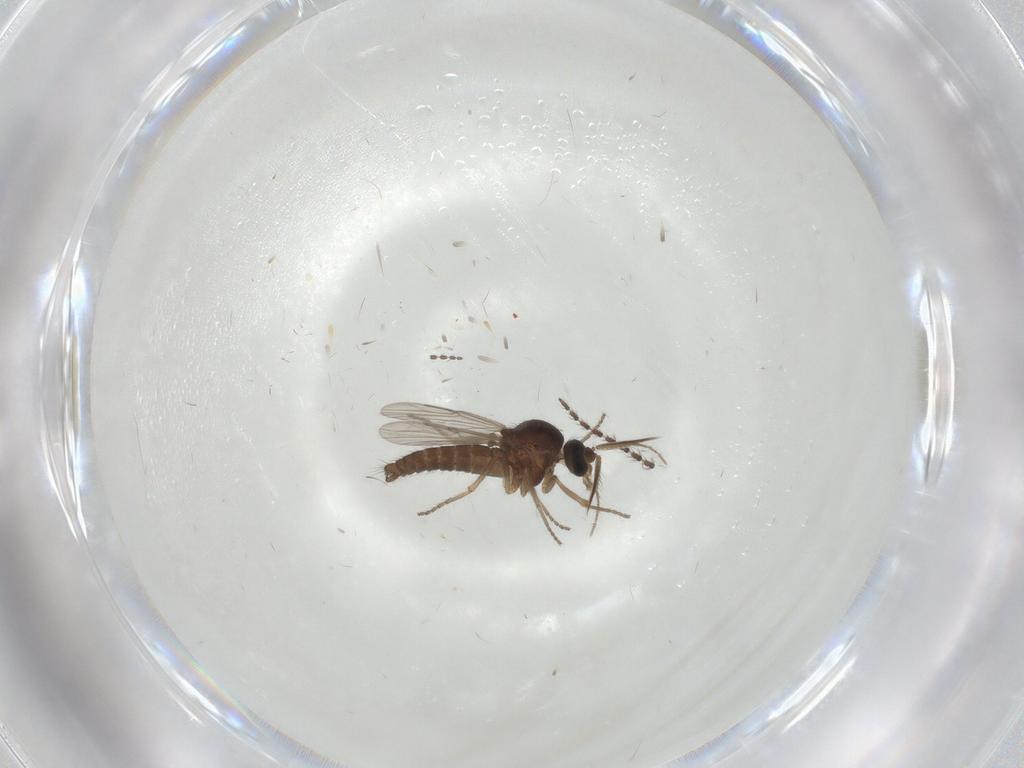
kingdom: Animalia
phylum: Arthropoda
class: Insecta
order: Diptera
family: Ceratopogonidae
